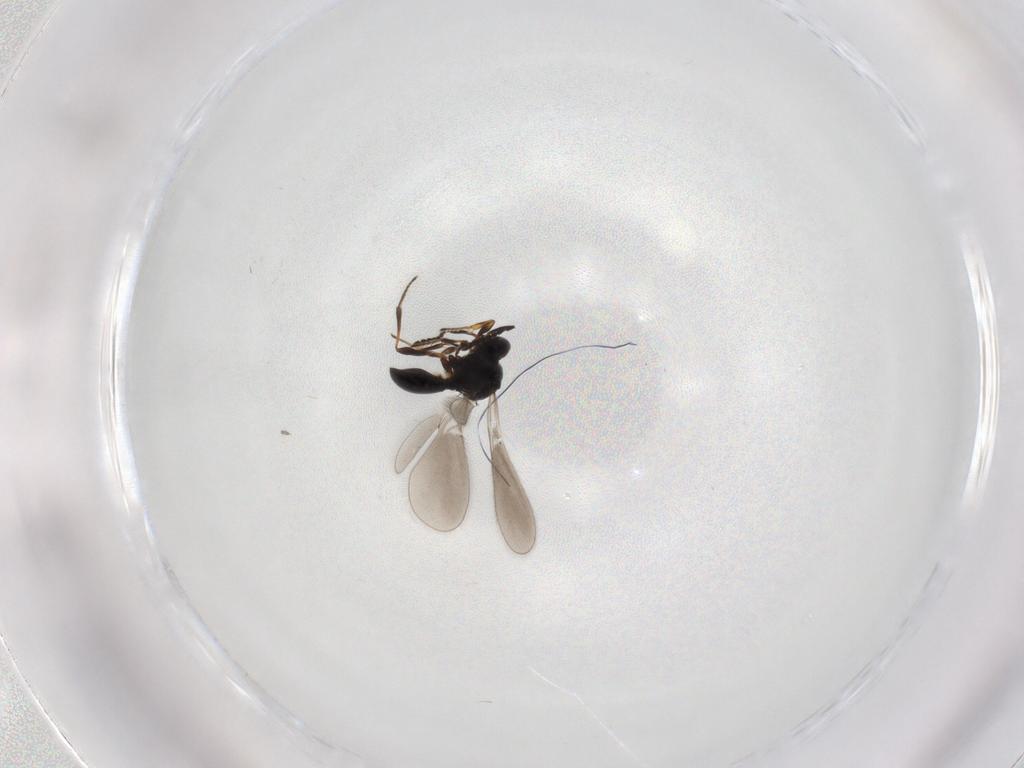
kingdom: Animalia
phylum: Arthropoda
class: Insecta
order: Hymenoptera
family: Platygastridae
